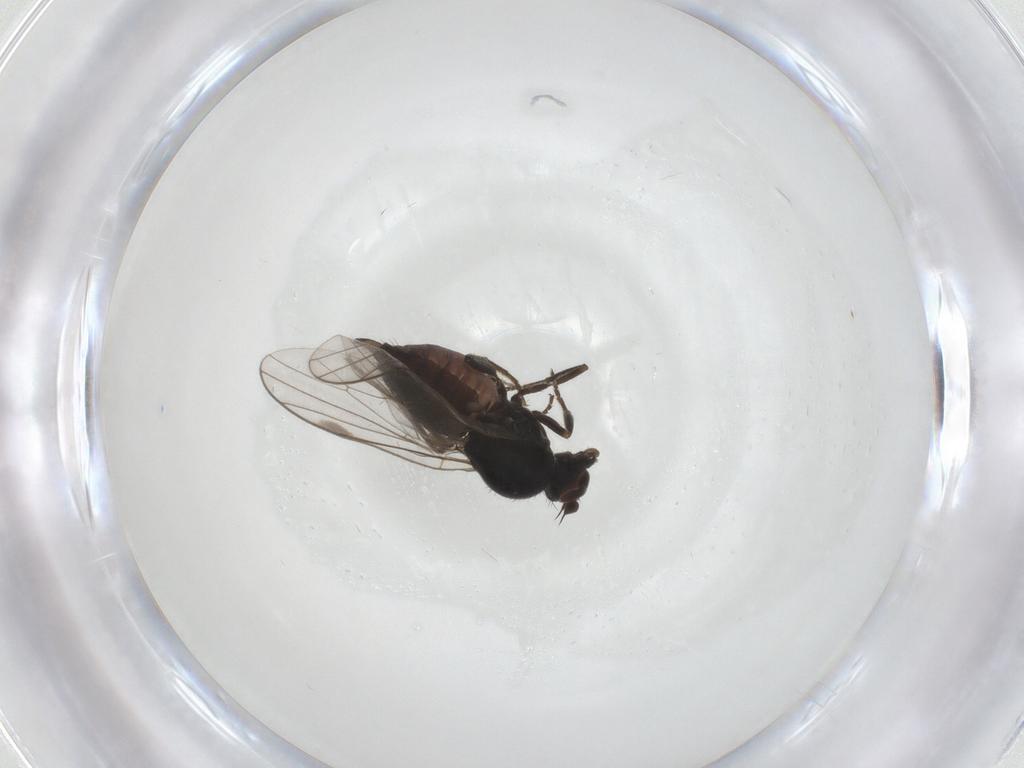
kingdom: Animalia
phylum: Arthropoda
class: Insecta
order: Diptera
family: Hybotidae
